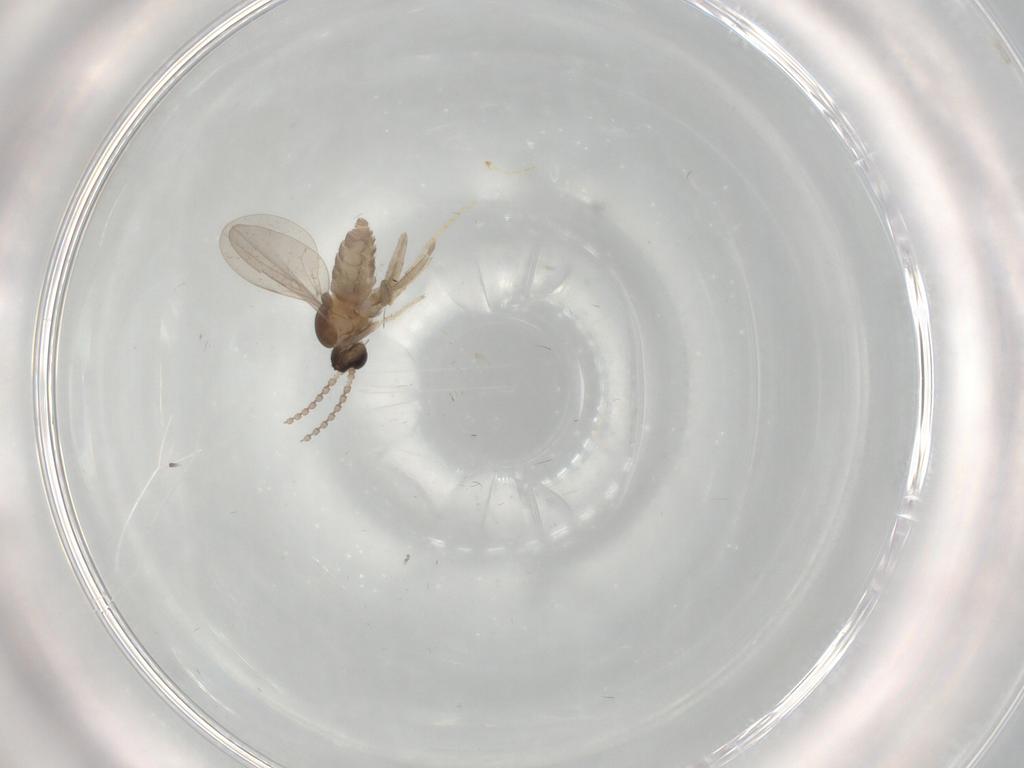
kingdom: Animalia
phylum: Arthropoda
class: Insecta
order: Diptera
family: Cecidomyiidae
